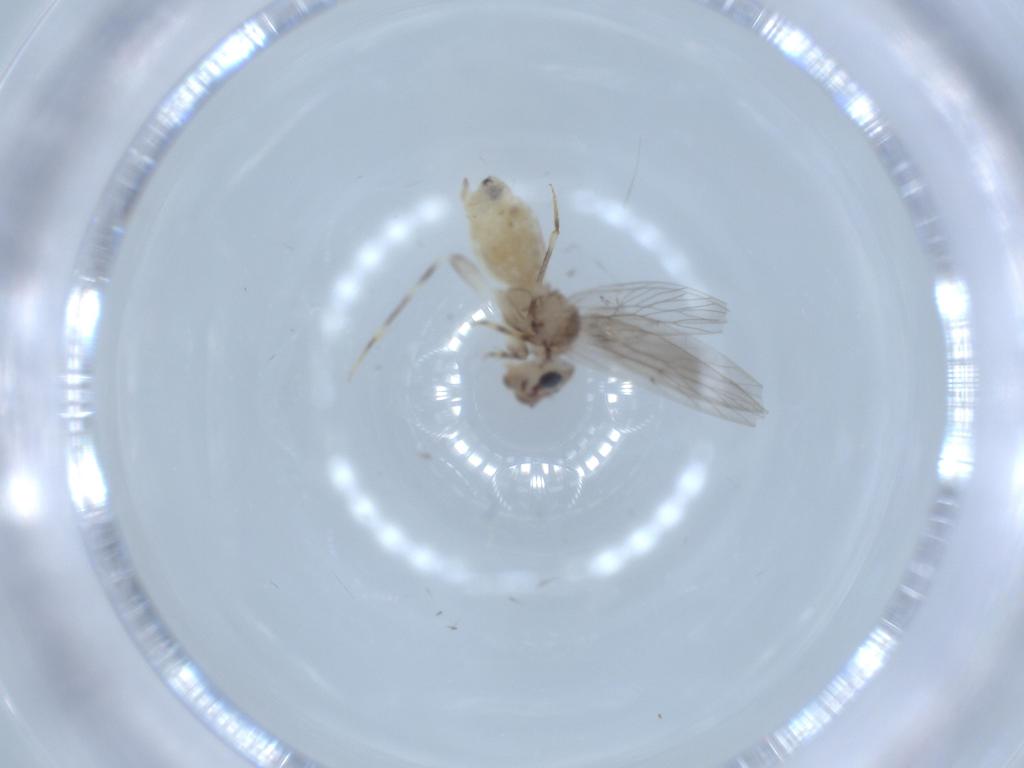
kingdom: Animalia
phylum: Arthropoda
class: Insecta
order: Psocodea
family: Lepidopsocidae
